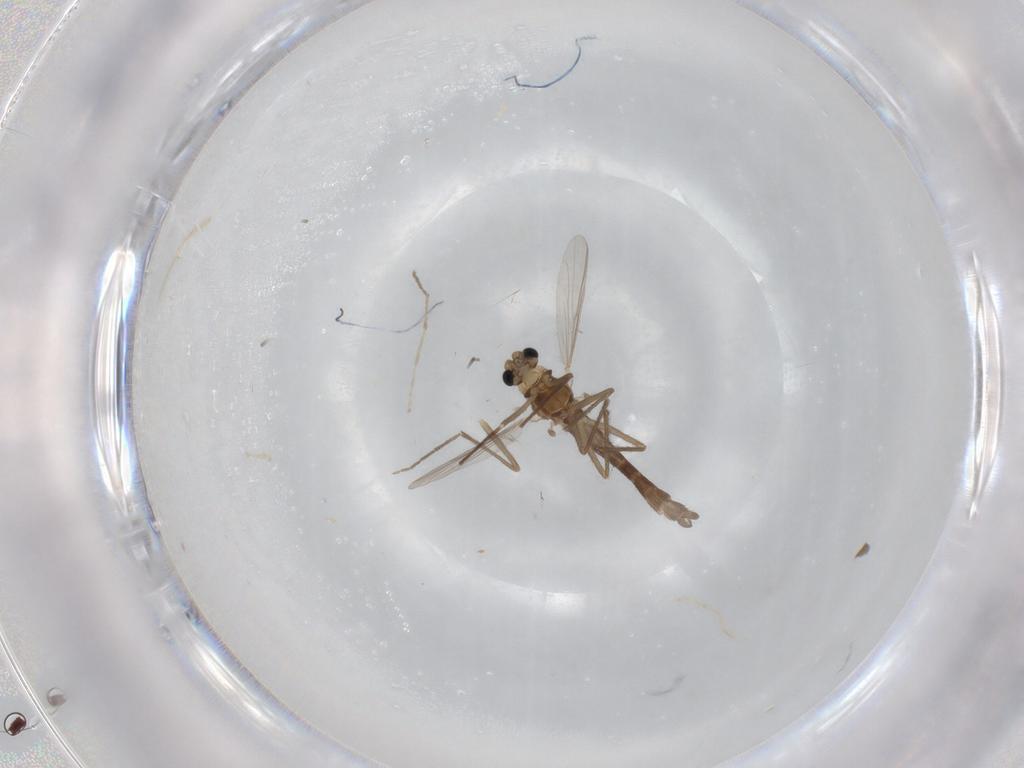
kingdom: Animalia
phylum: Arthropoda
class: Insecta
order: Diptera
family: Chironomidae
